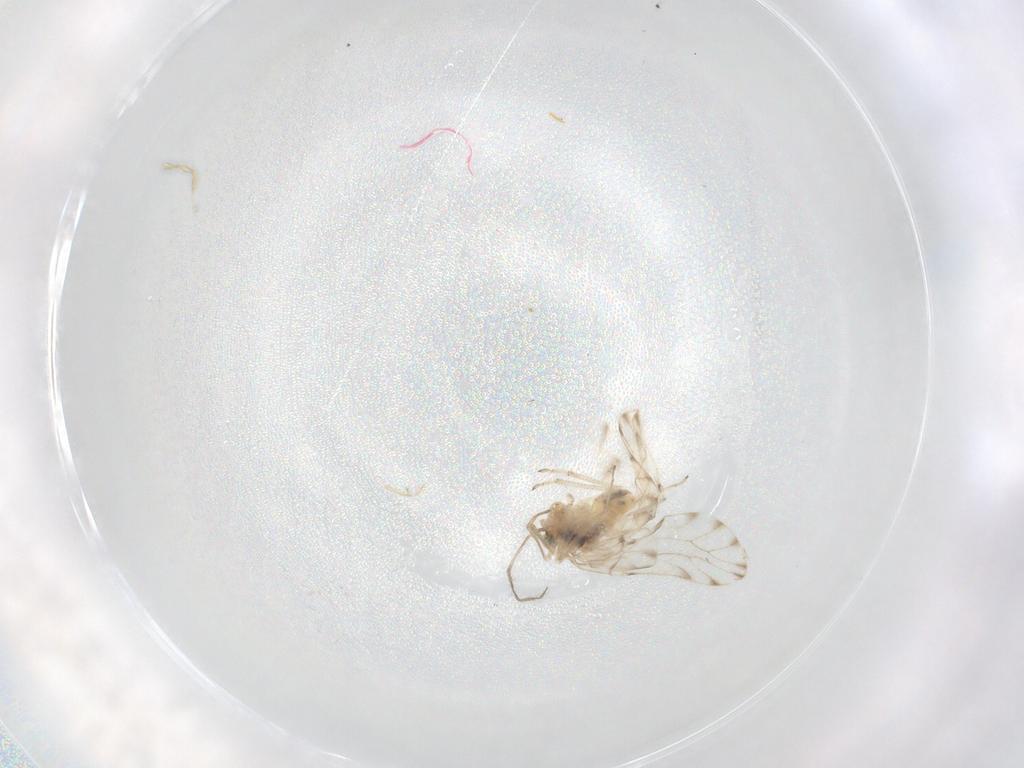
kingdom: Animalia
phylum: Arthropoda
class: Insecta
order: Psocodea
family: Ectopsocidae
